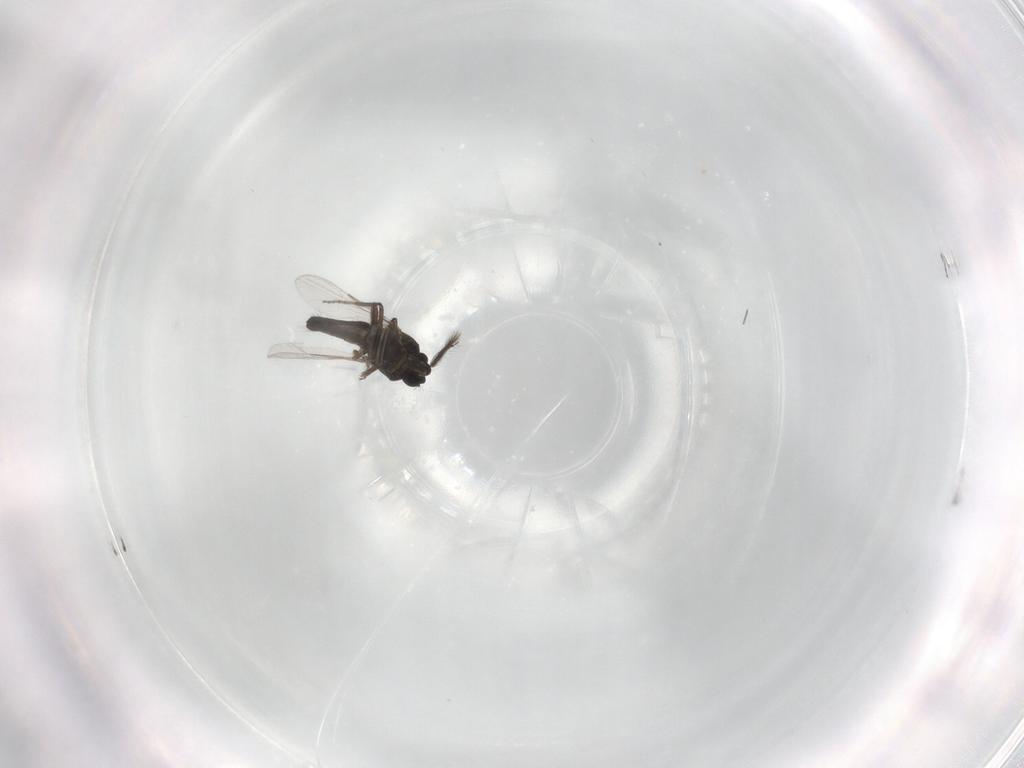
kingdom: Animalia
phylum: Arthropoda
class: Insecta
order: Diptera
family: Ceratopogonidae
